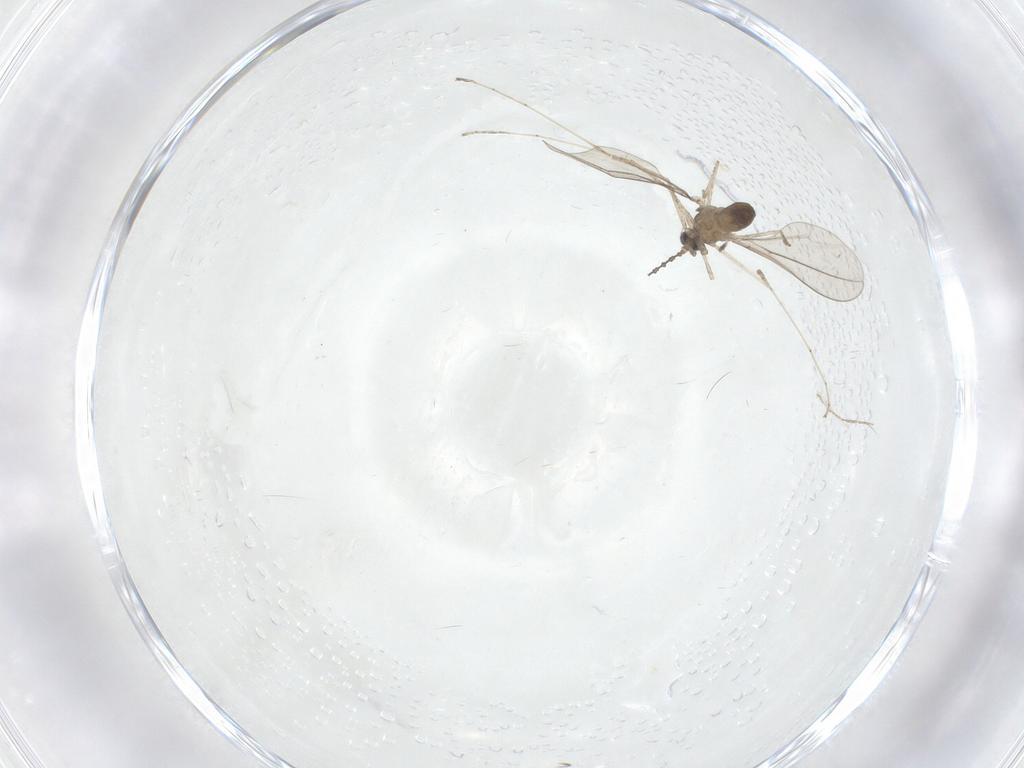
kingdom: Animalia
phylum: Arthropoda
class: Insecta
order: Diptera
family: Cecidomyiidae
